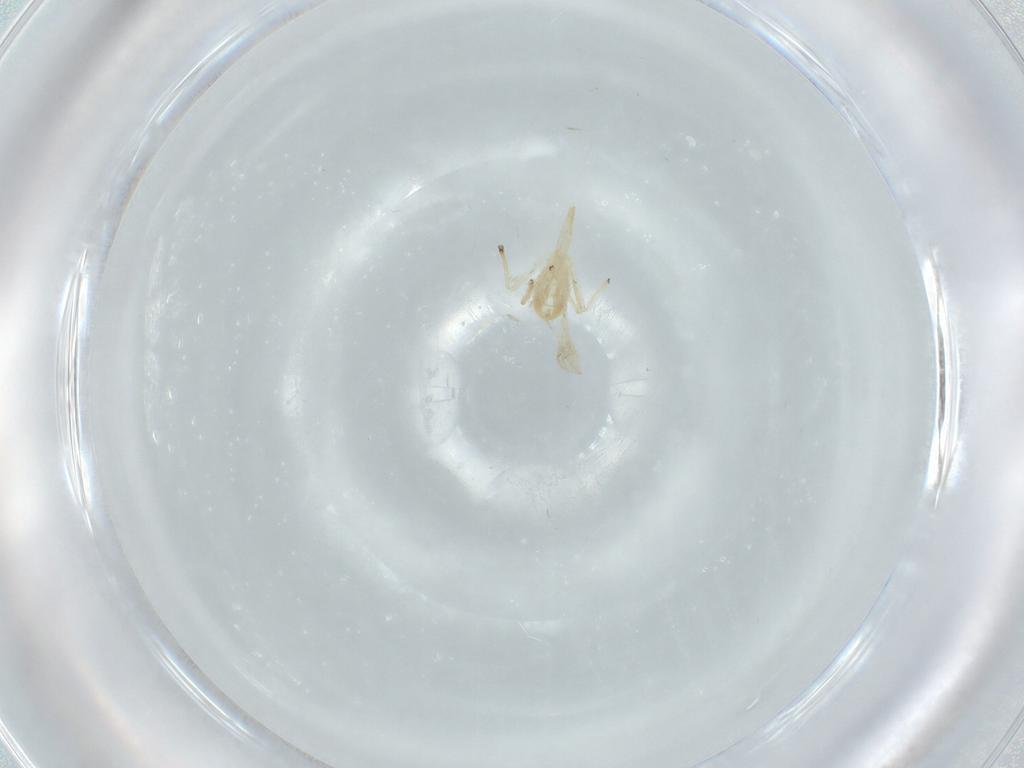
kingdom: Animalia
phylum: Arthropoda
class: Insecta
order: Diptera
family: Cecidomyiidae
